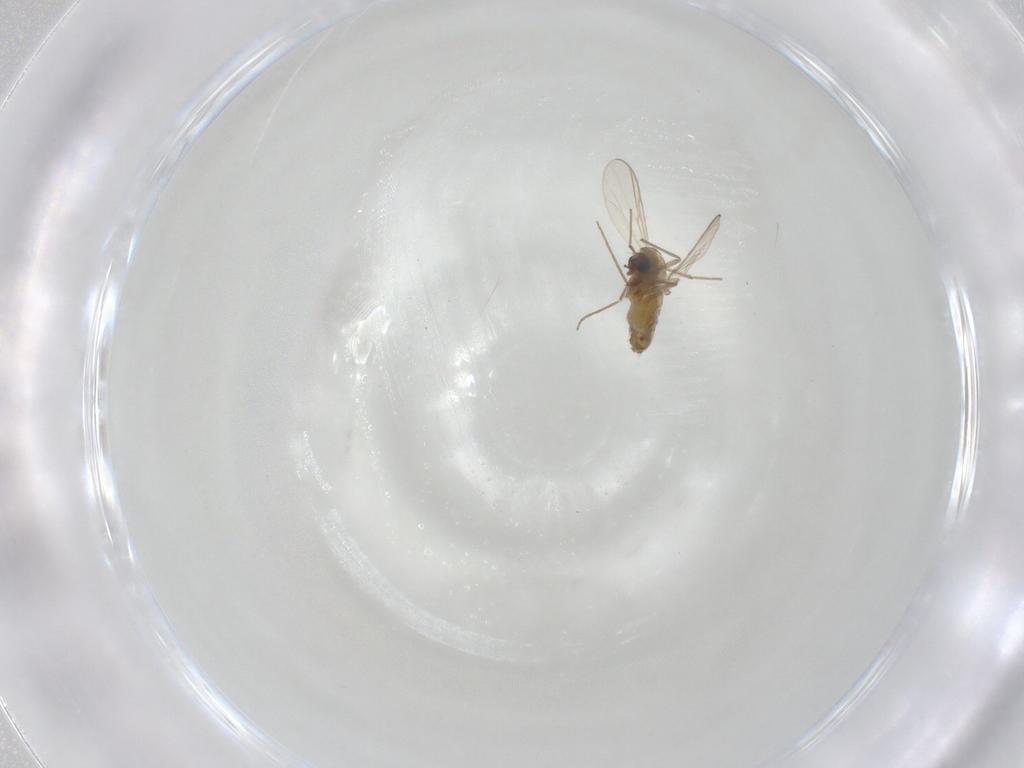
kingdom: Animalia
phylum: Arthropoda
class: Insecta
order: Diptera
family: Chironomidae
